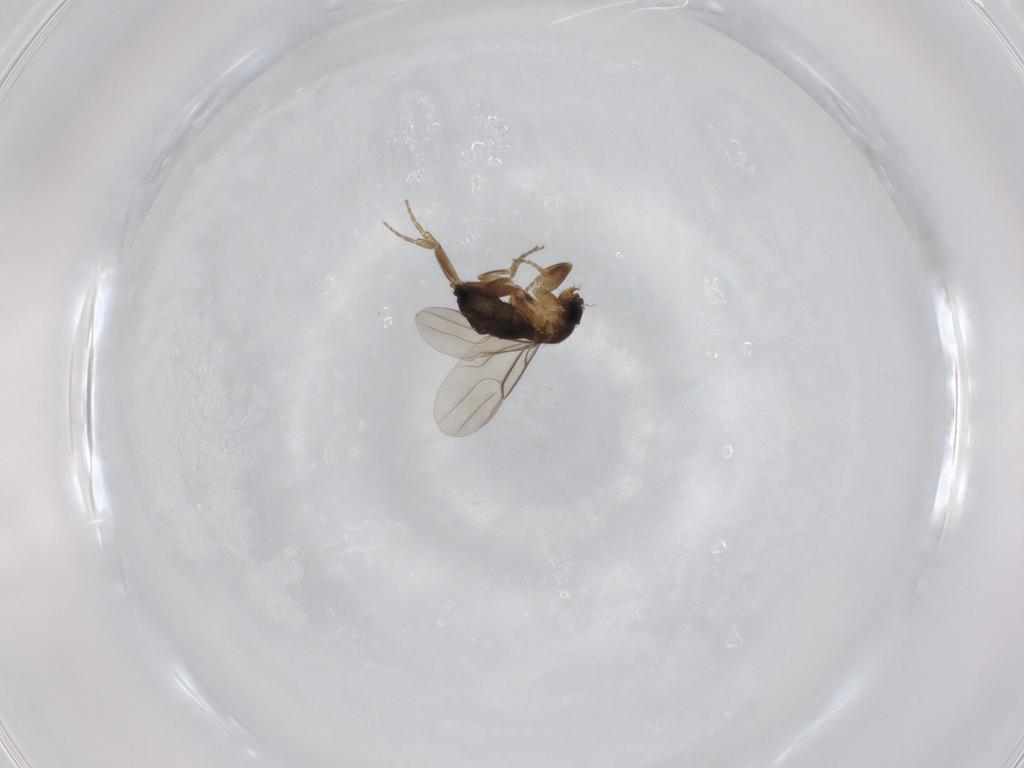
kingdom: Animalia
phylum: Arthropoda
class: Insecta
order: Diptera
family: Phoridae
